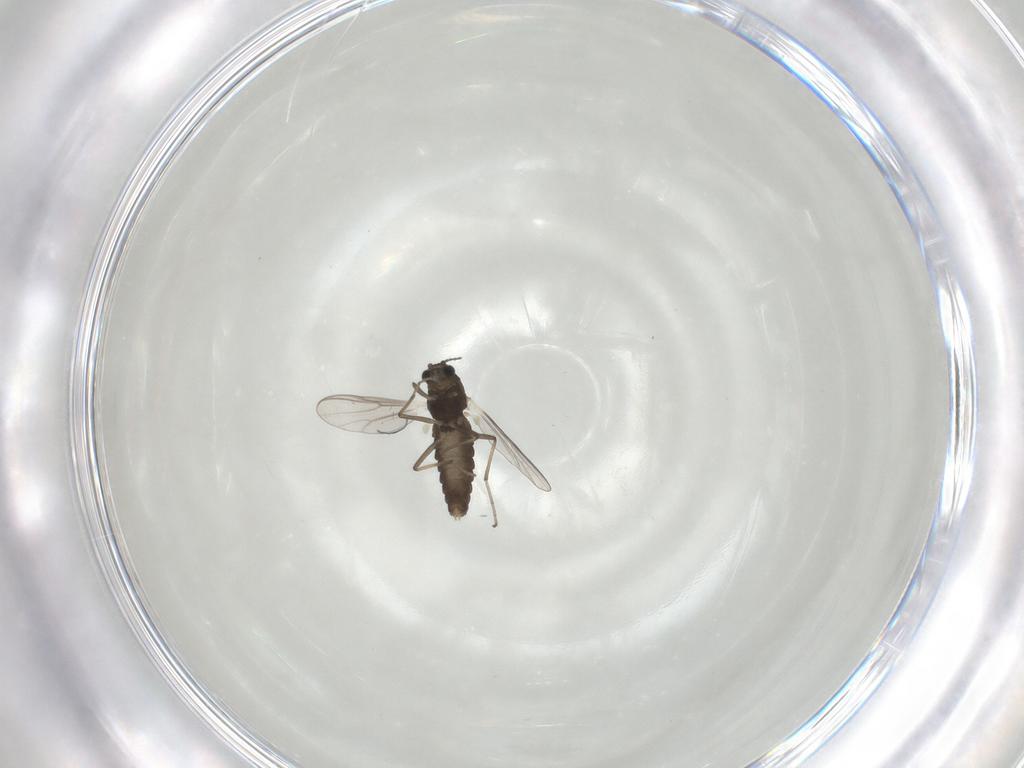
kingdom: Animalia
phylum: Arthropoda
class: Insecta
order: Diptera
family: Chironomidae
